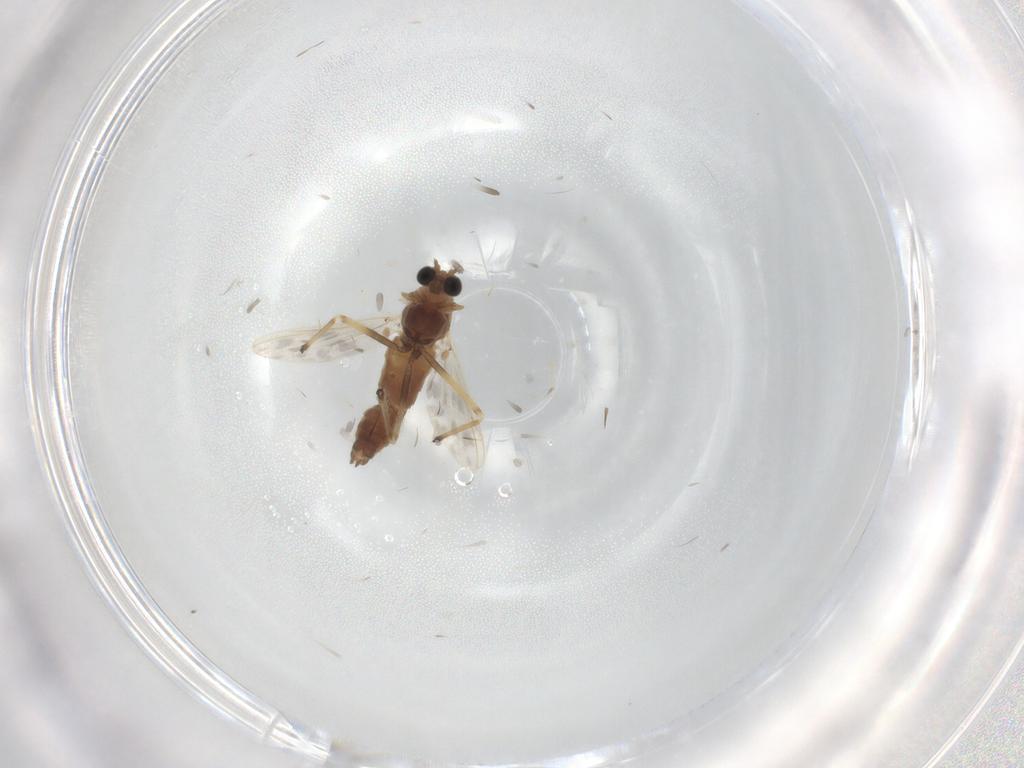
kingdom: Animalia
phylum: Arthropoda
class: Insecta
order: Diptera
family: Chironomidae
